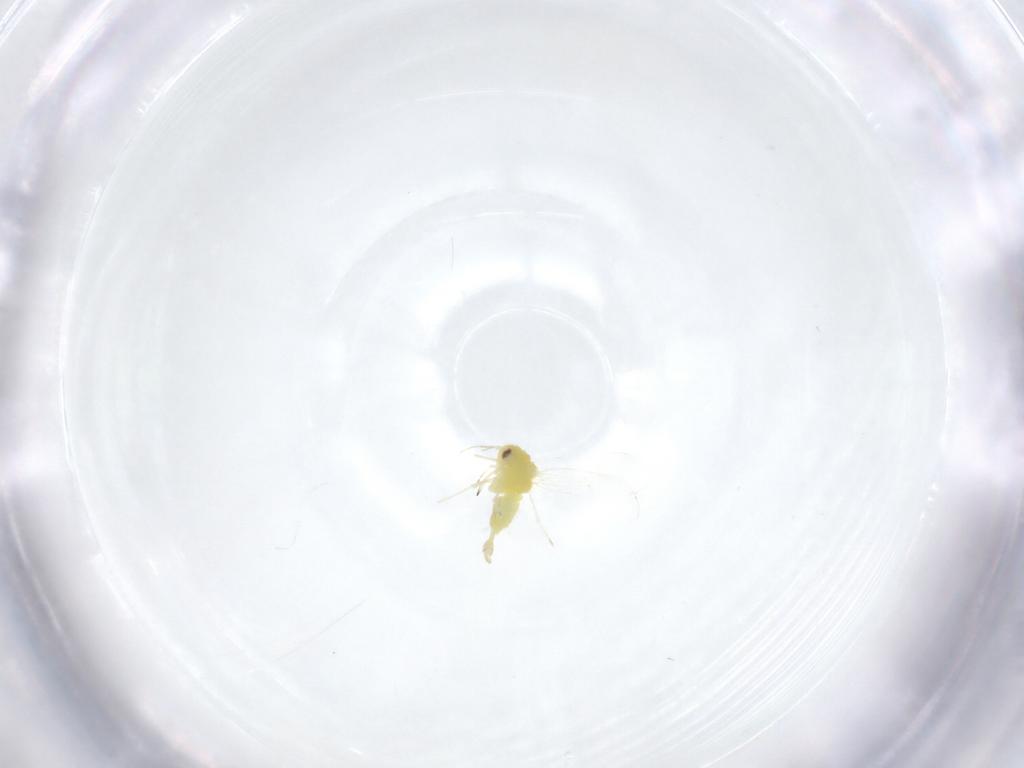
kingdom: Animalia
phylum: Arthropoda
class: Insecta
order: Hemiptera
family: Aleyrodidae
